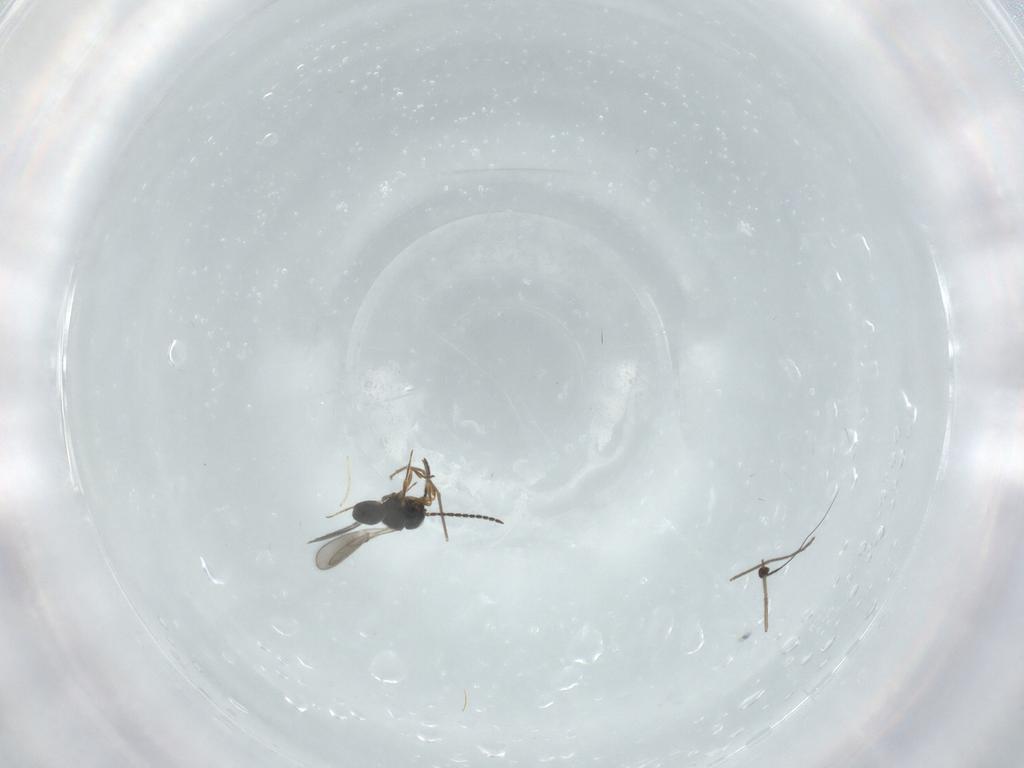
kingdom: Animalia
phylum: Arthropoda
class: Insecta
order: Hymenoptera
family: Scelionidae
